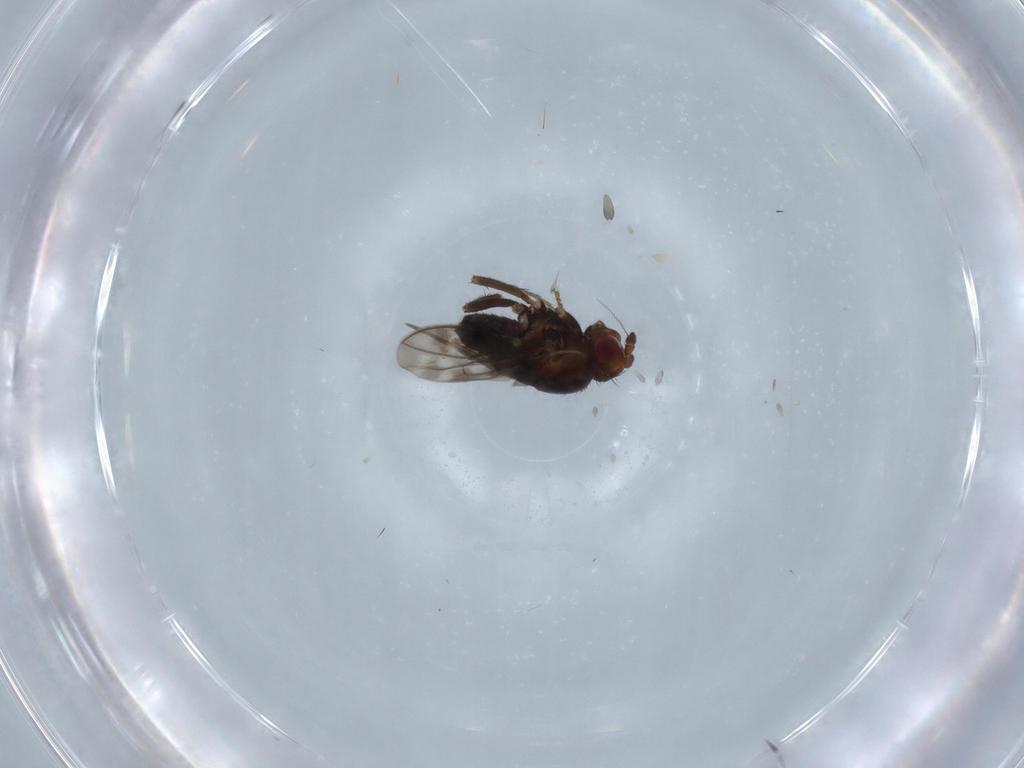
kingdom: Animalia
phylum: Arthropoda
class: Insecta
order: Diptera
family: Sphaeroceridae
